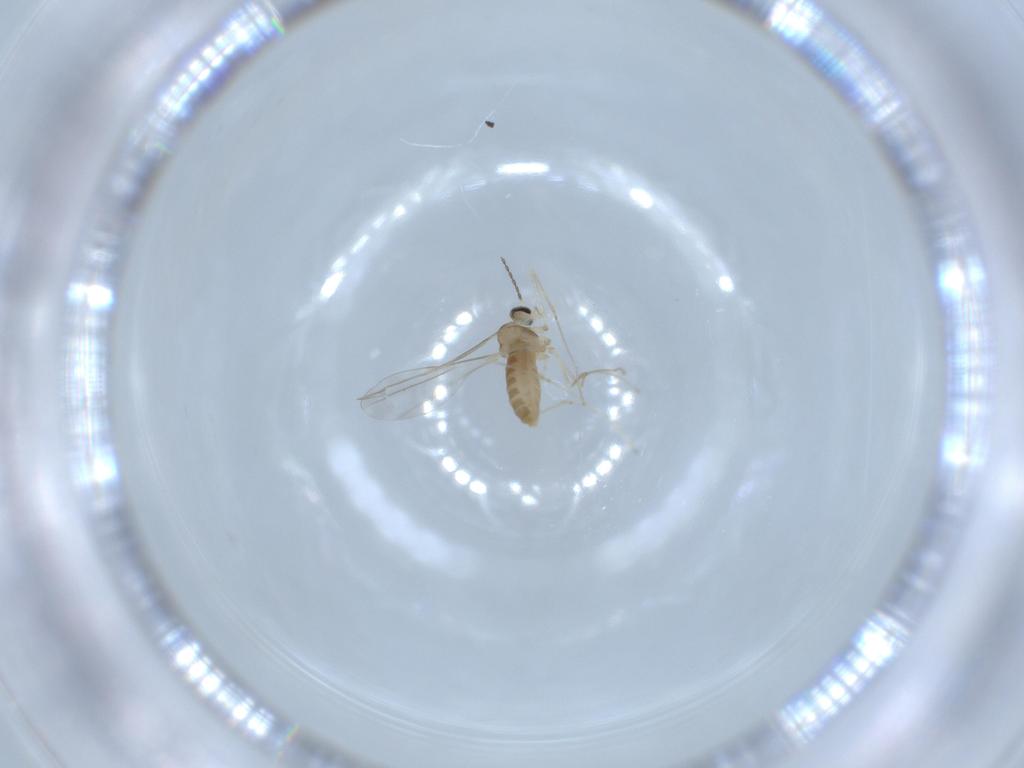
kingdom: Animalia
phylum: Arthropoda
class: Insecta
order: Diptera
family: Cecidomyiidae
